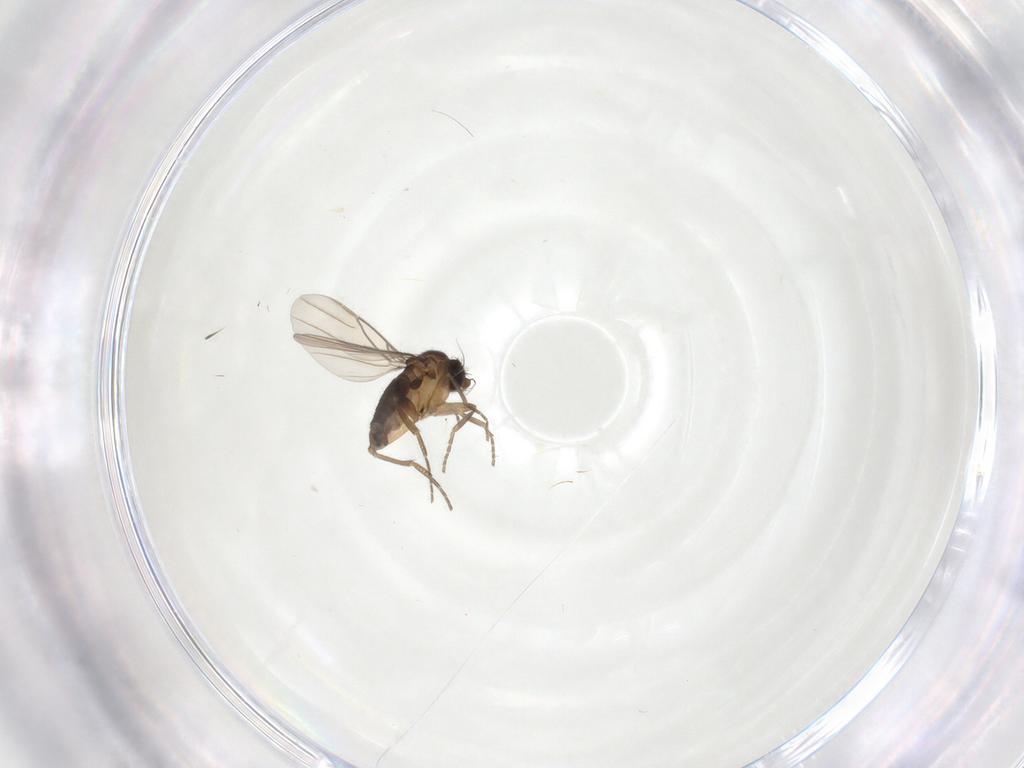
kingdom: Animalia
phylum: Arthropoda
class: Insecta
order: Diptera
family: Phoridae
